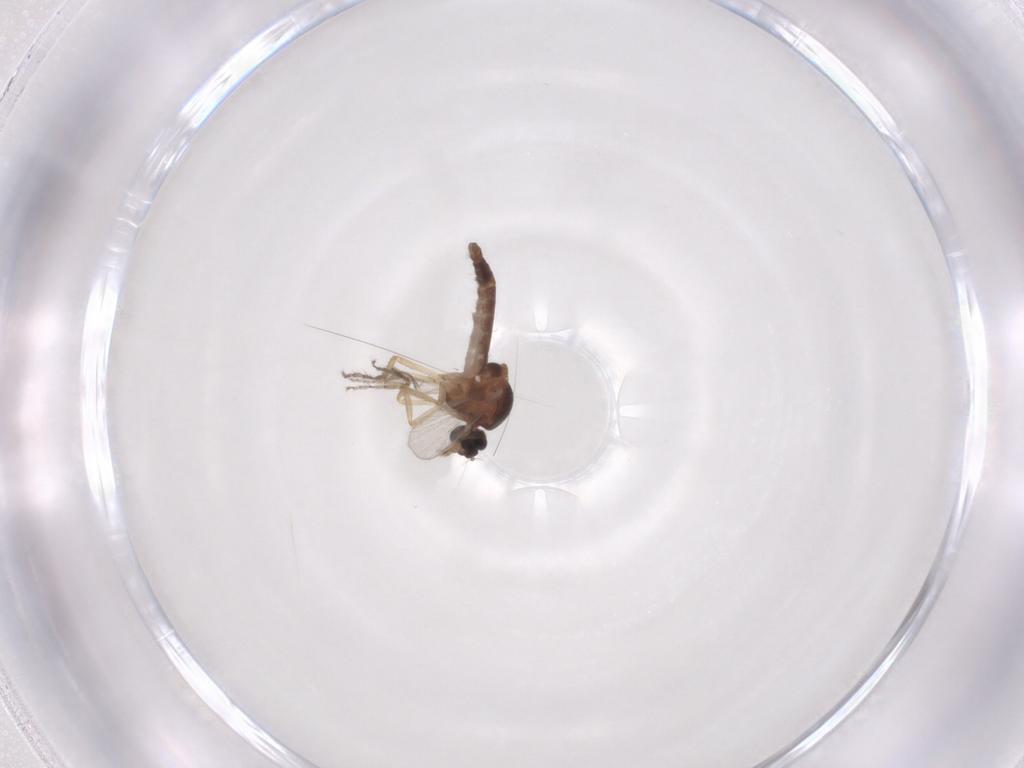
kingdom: Animalia
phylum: Arthropoda
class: Insecta
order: Diptera
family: Ceratopogonidae
